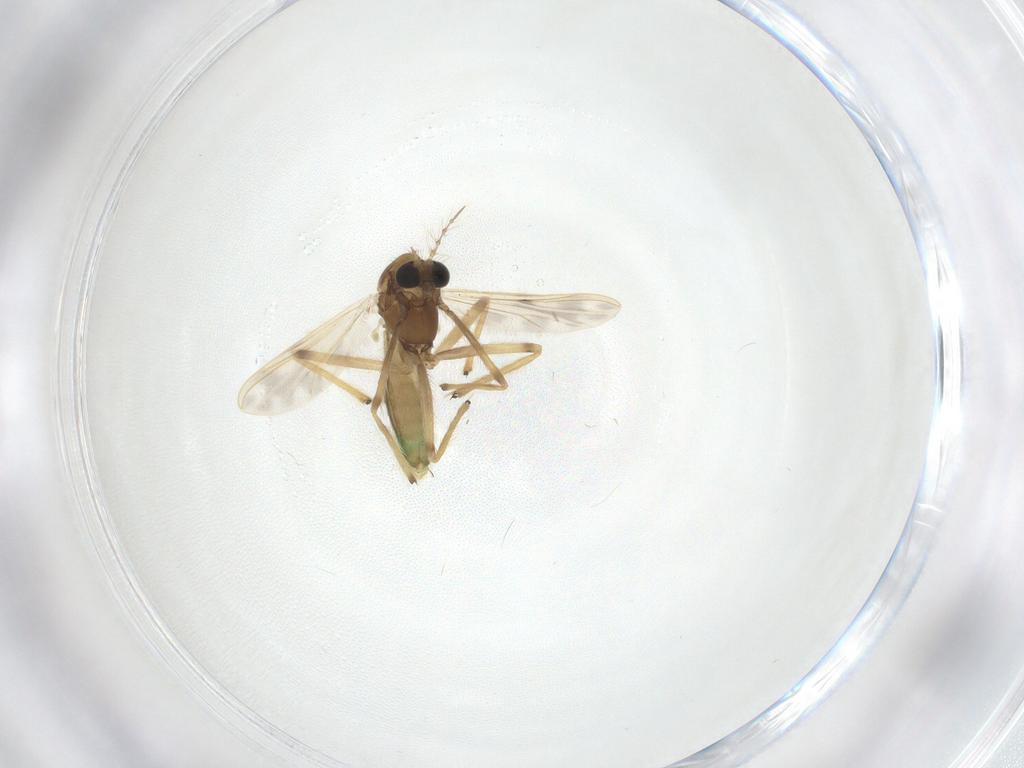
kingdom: Animalia
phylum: Arthropoda
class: Insecta
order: Diptera
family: Chironomidae
